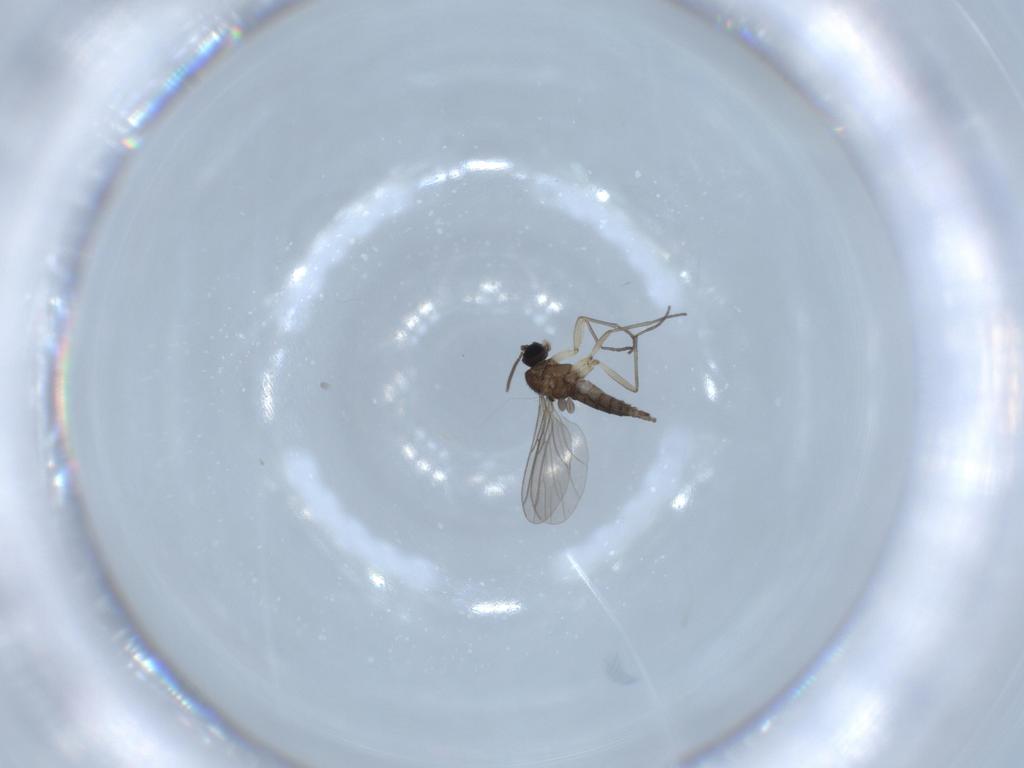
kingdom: Animalia
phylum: Arthropoda
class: Insecta
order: Diptera
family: Sciaridae
